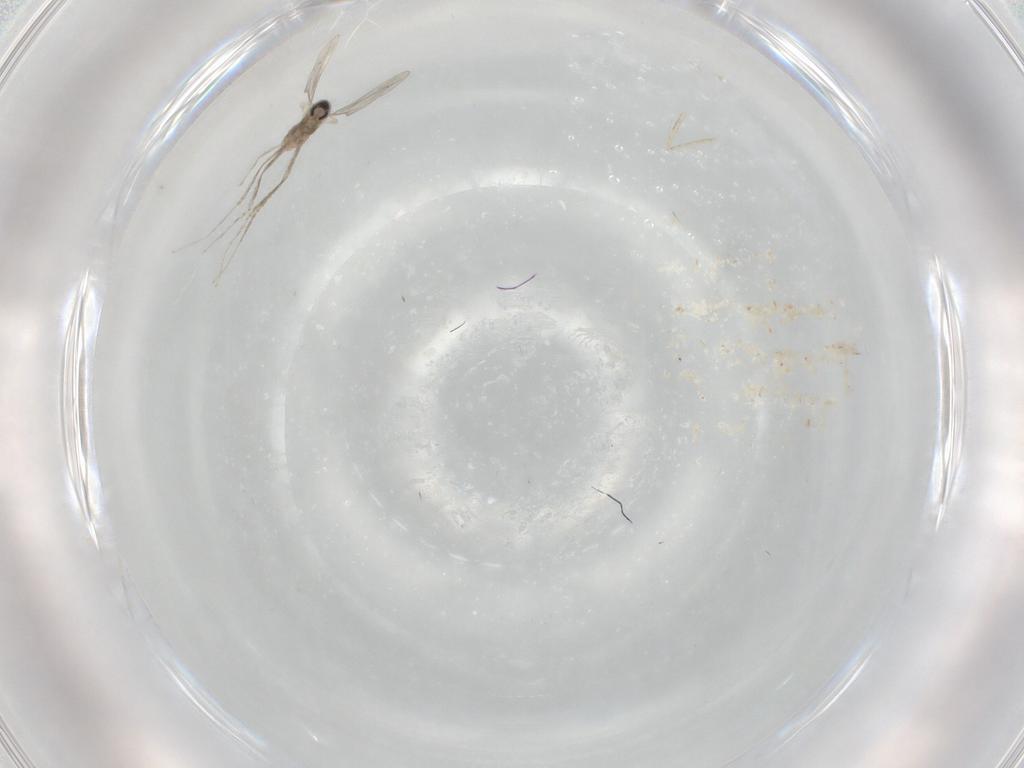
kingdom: Animalia
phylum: Arthropoda
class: Insecta
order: Diptera
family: Cecidomyiidae
